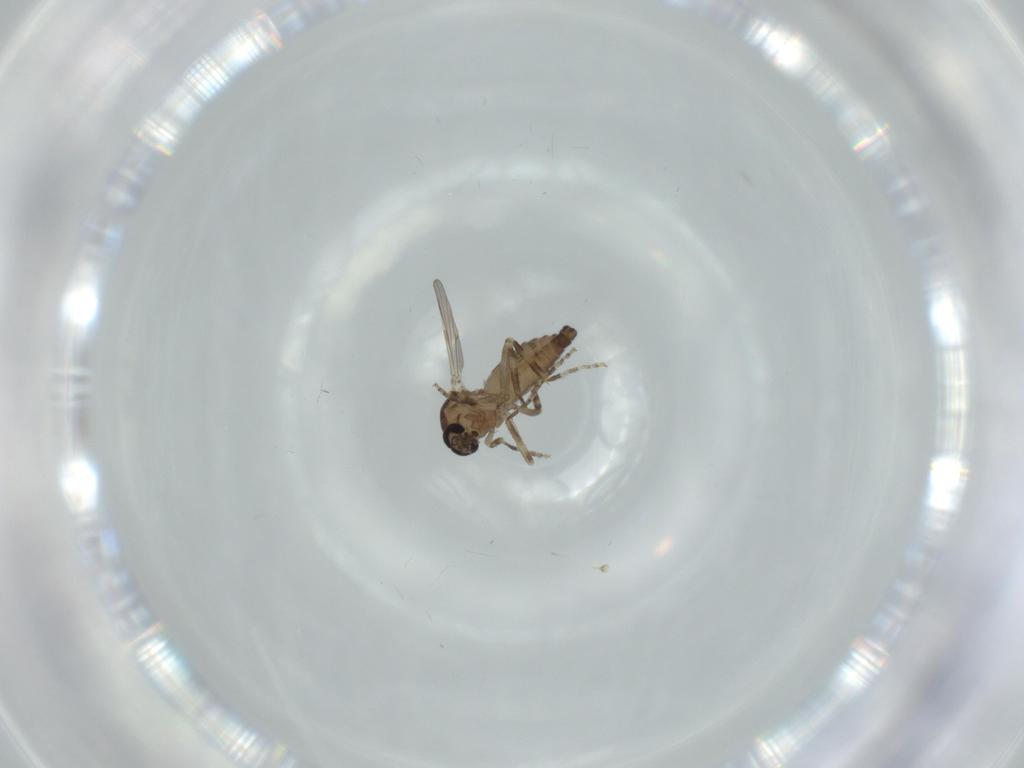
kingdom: Animalia
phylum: Arthropoda
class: Insecta
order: Diptera
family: Ceratopogonidae
